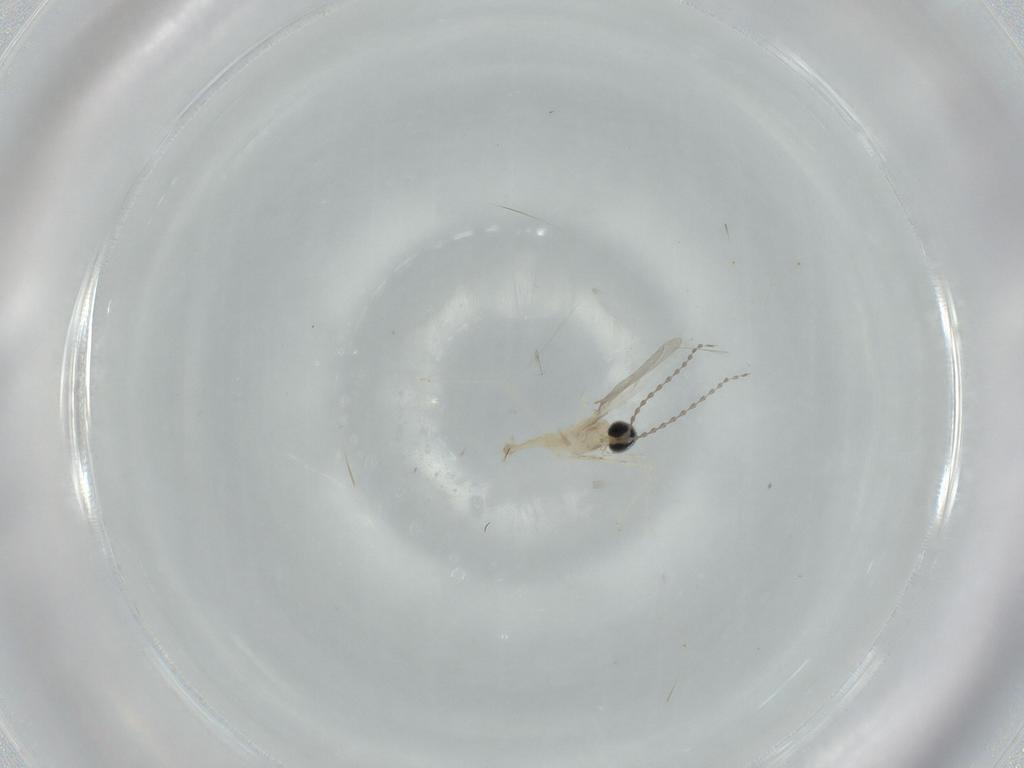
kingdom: Animalia
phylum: Arthropoda
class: Insecta
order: Diptera
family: Cecidomyiidae
